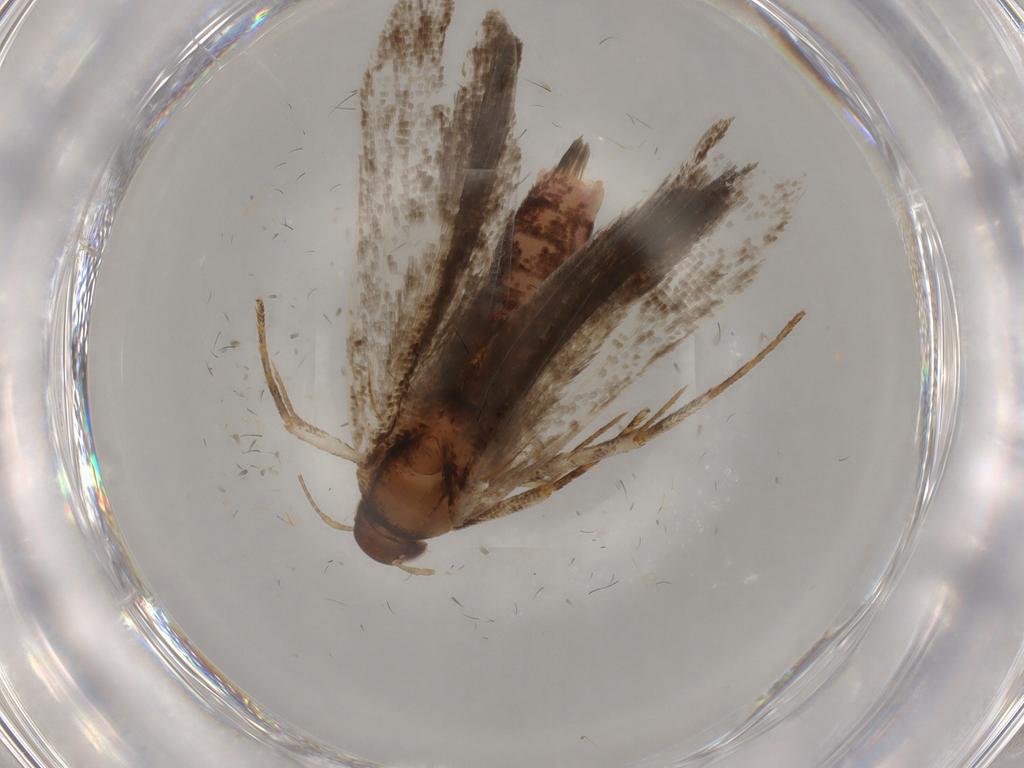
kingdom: Animalia
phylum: Arthropoda
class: Insecta
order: Lepidoptera
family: Gelechiidae
